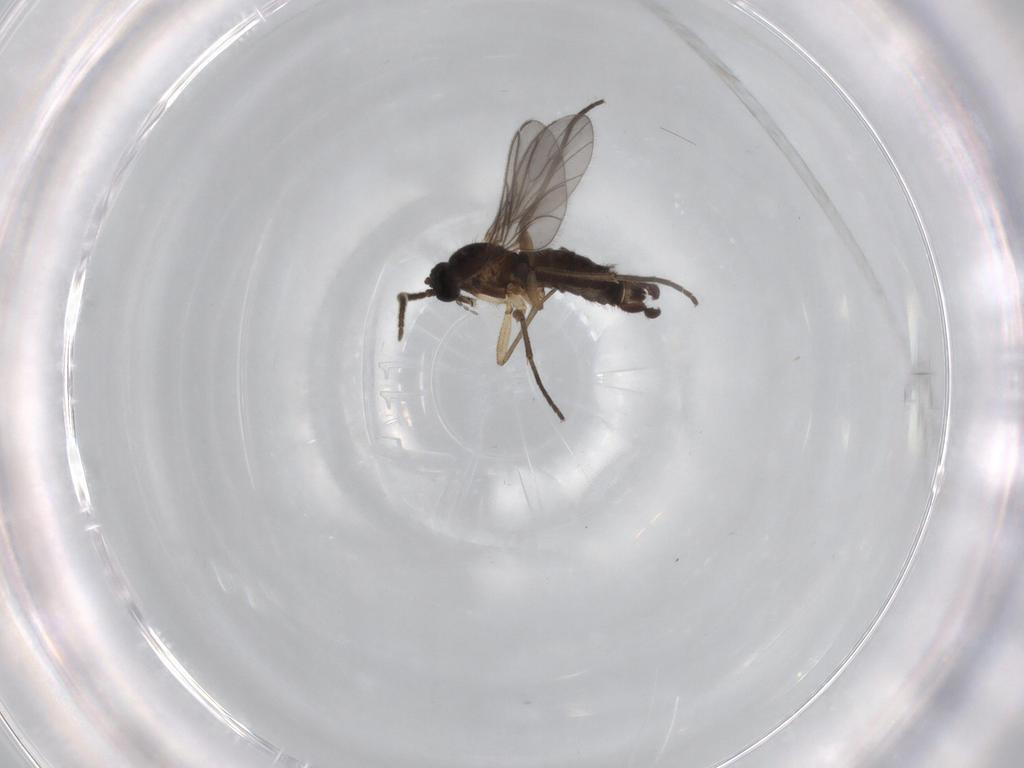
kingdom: Animalia
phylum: Arthropoda
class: Insecta
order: Diptera
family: Sciaridae
